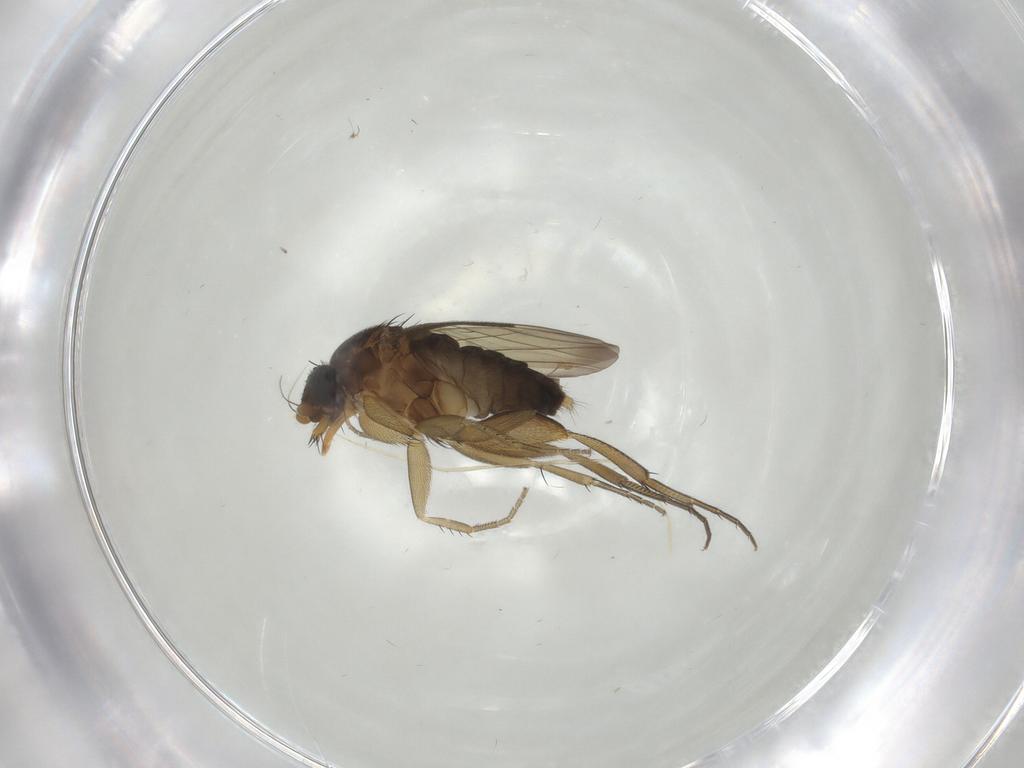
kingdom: Animalia
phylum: Arthropoda
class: Insecta
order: Diptera
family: Phoridae
